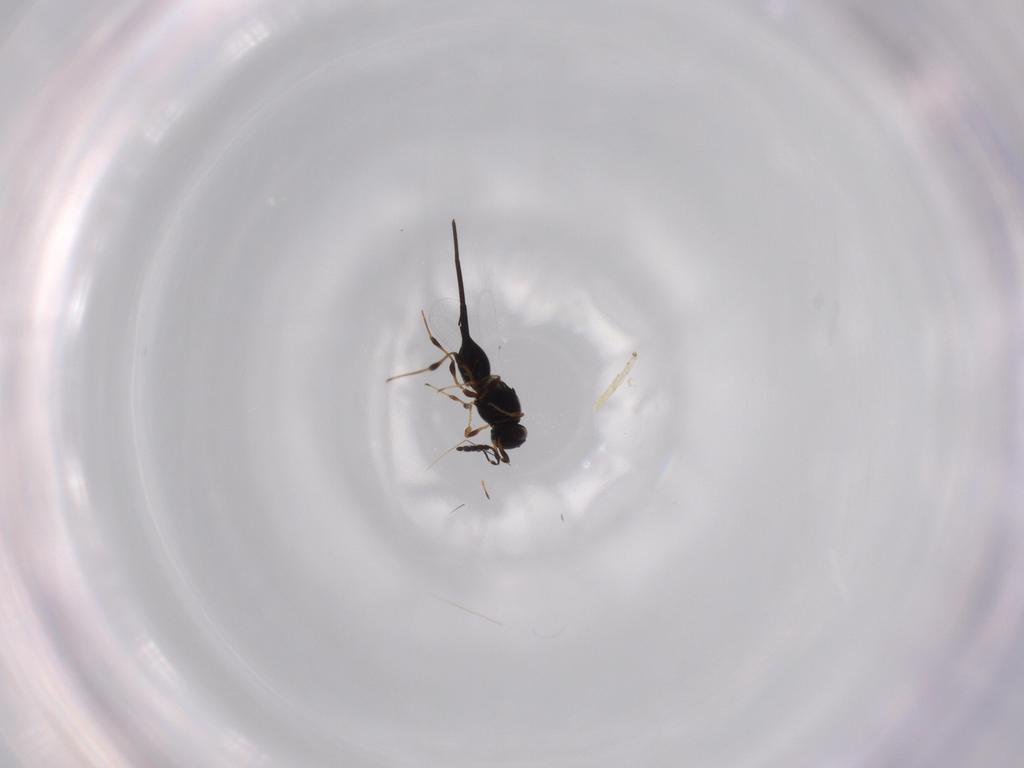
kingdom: Animalia
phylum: Arthropoda
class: Insecta
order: Hymenoptera
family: Platygastridae
